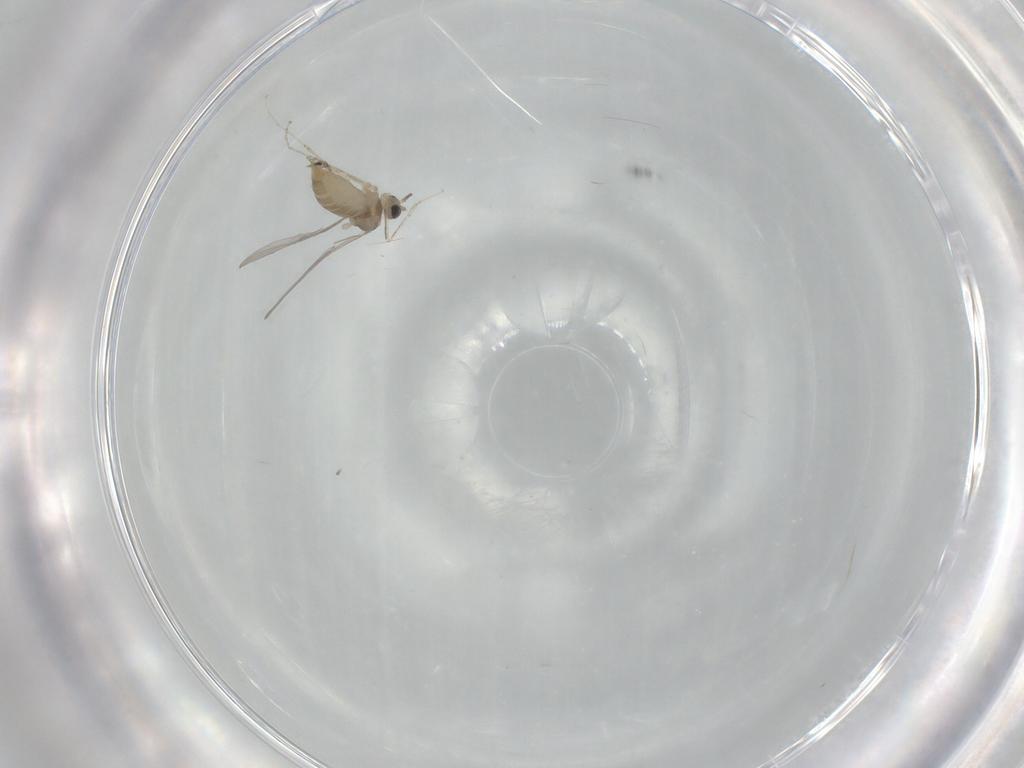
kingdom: Animalia
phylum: Arthropoda
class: Insecta
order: Diptera
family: Cecidomyiidae
